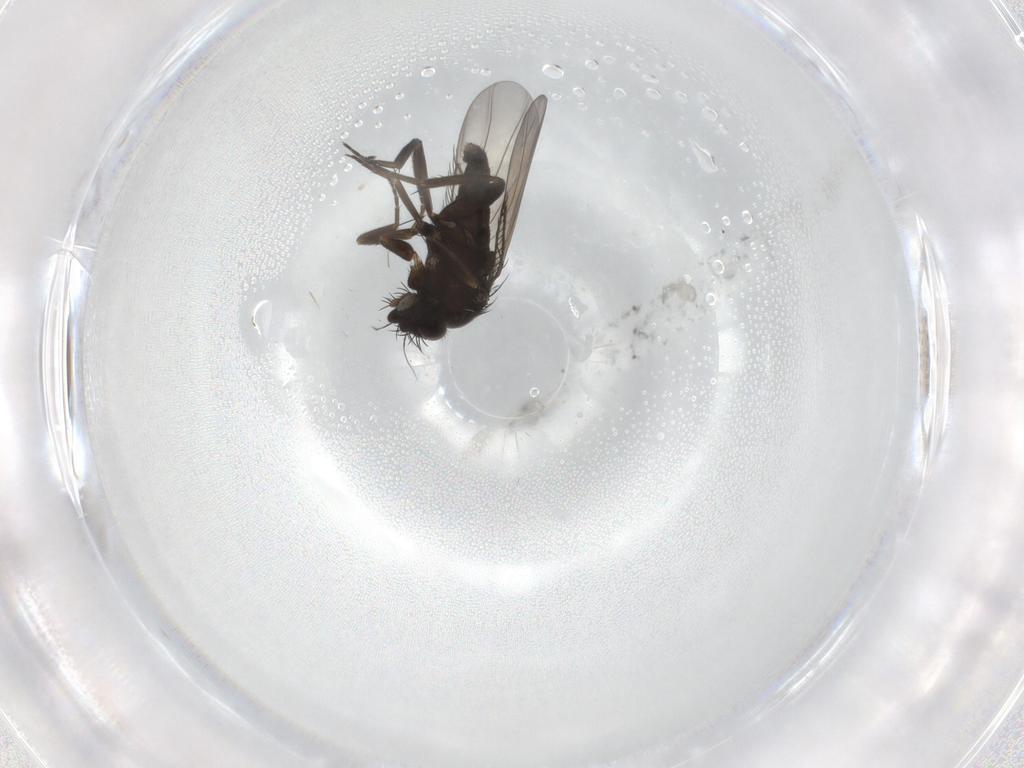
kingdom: Animalia
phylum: Arthropoda
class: Insecta
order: Diptera
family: Phoridae
